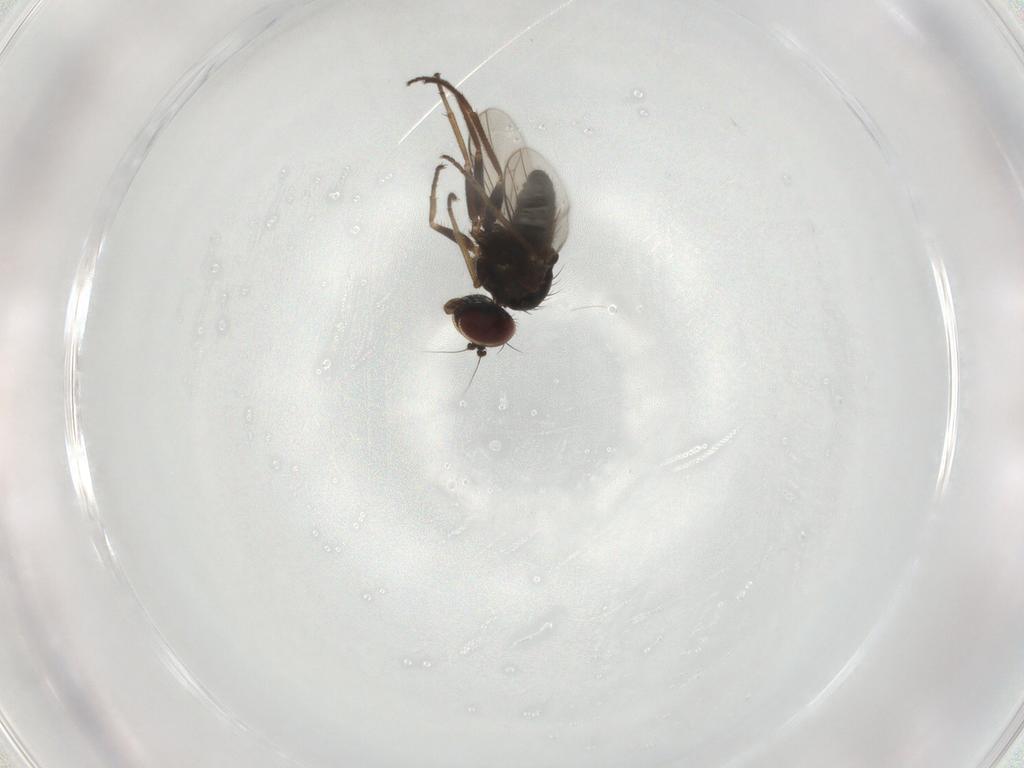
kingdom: Animalia
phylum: Arthropoda
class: Insecta
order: Diptera
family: Dolichopodidae
